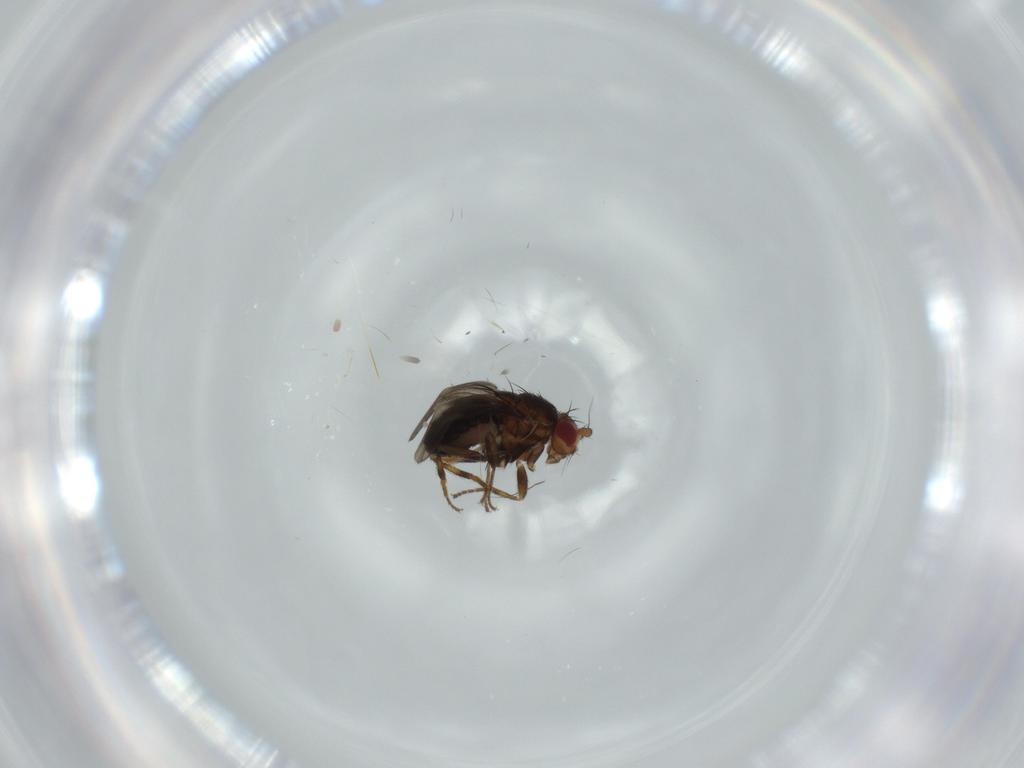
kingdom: Animalia
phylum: Arthropoda
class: Insecta
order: Diptera
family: Sphaeroceridae
